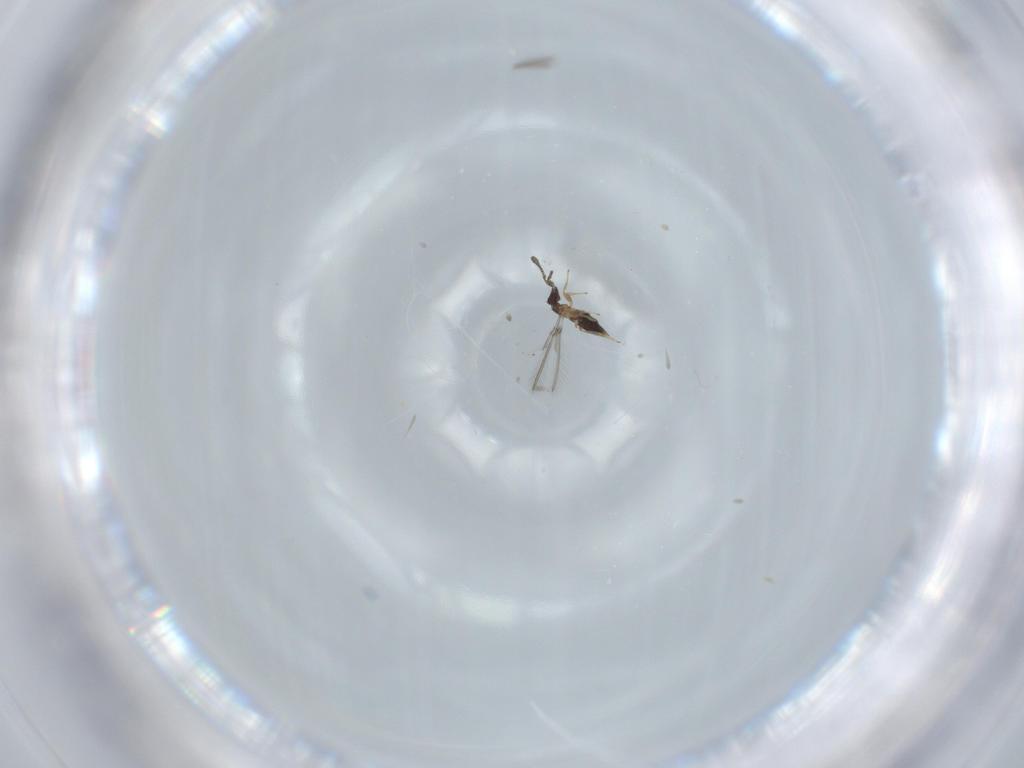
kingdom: Animalia
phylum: Arthropoda
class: Insecta
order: Hymenoptera
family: Mymaridae
